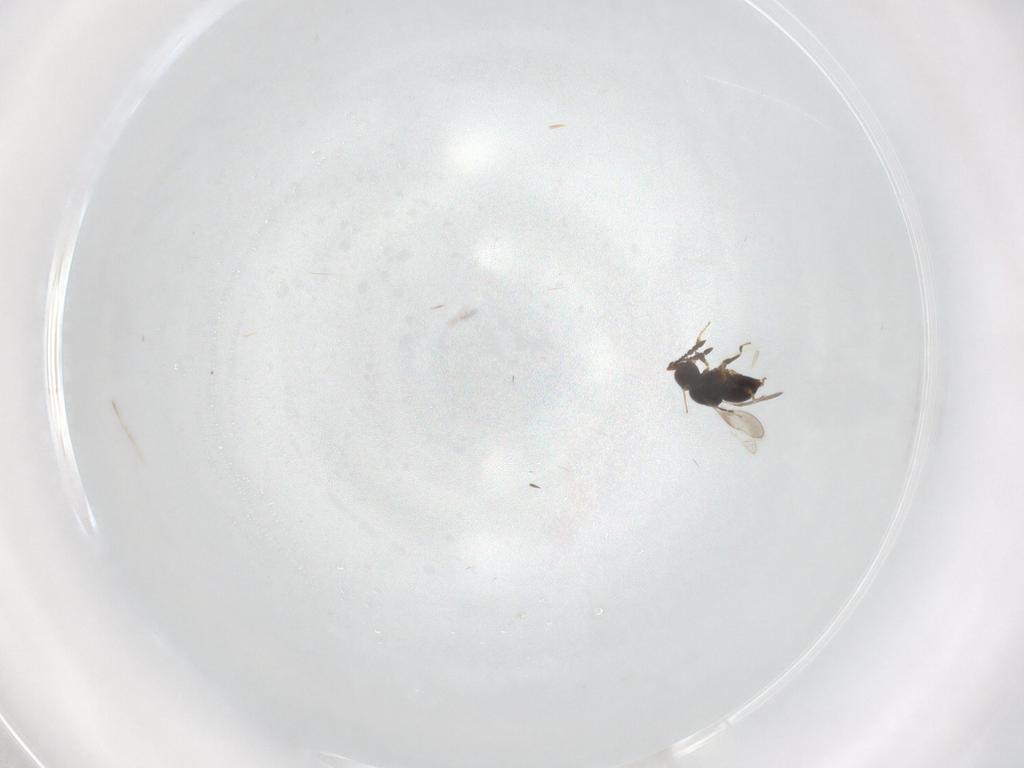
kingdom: Animalia
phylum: Arthropoda
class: Insecta
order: Hymenoptera
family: Ceraphronidae
